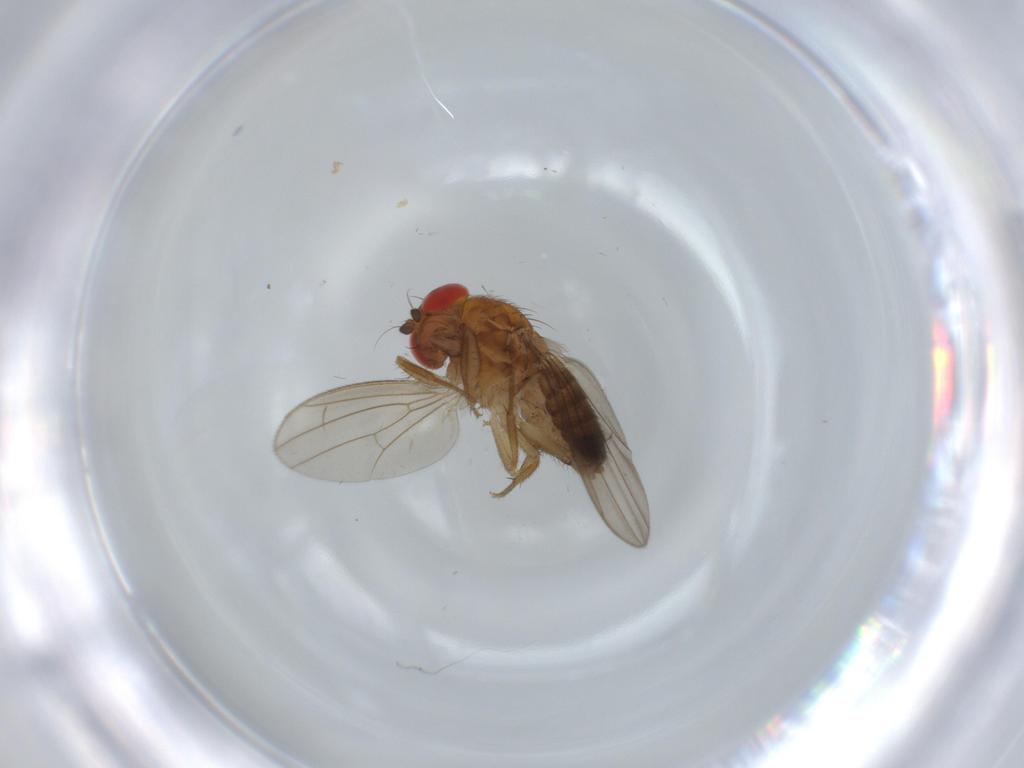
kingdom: Animalia
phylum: Arthropoda
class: Insecta
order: Diptera
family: Drosophilidae
